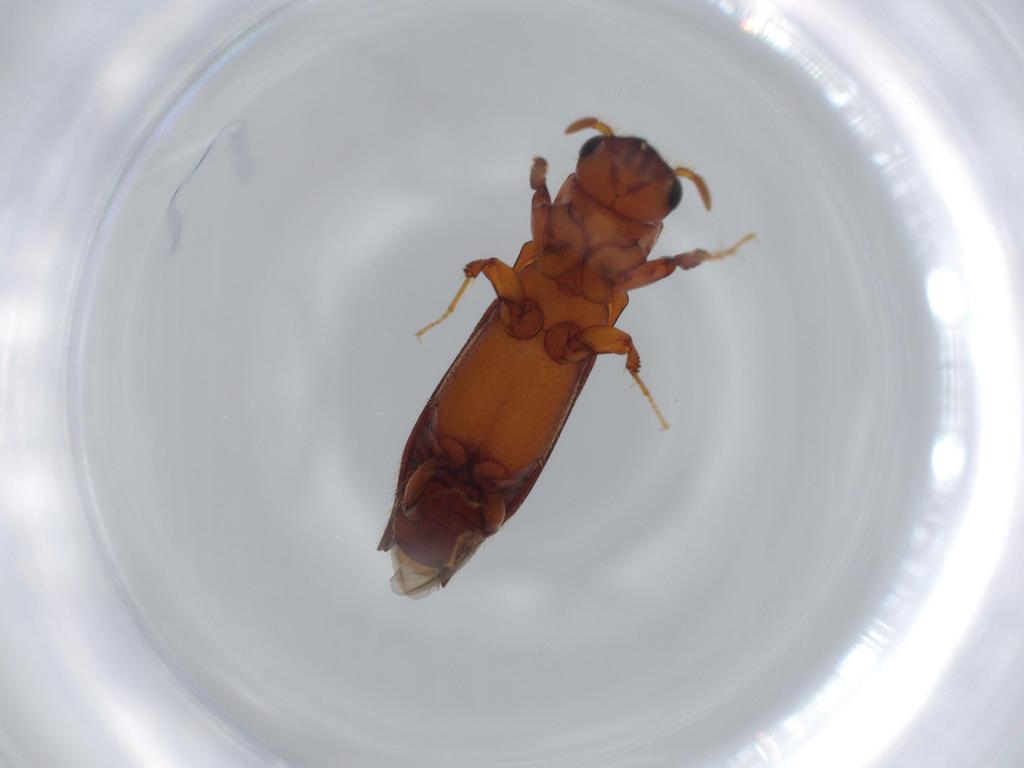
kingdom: Animalia
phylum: Arthropoda
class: Insecta
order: Coleoptera
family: Curculionidae
